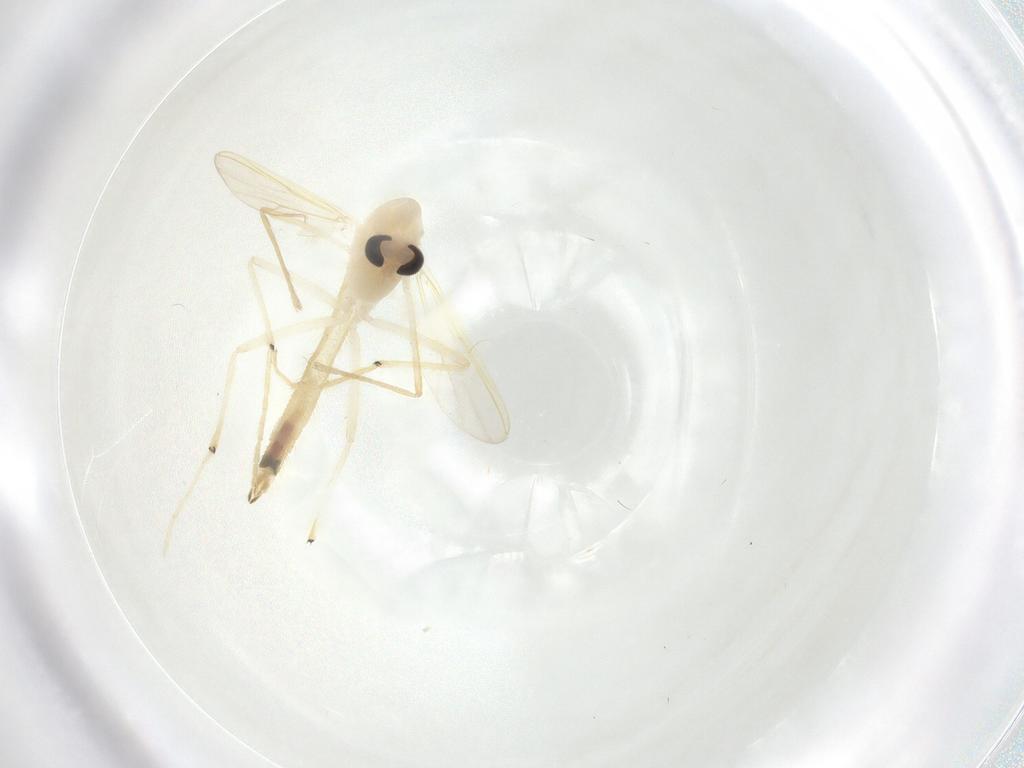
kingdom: Animalia
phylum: Arthropoda
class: Insecta
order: Diptera
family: Chironomidae
